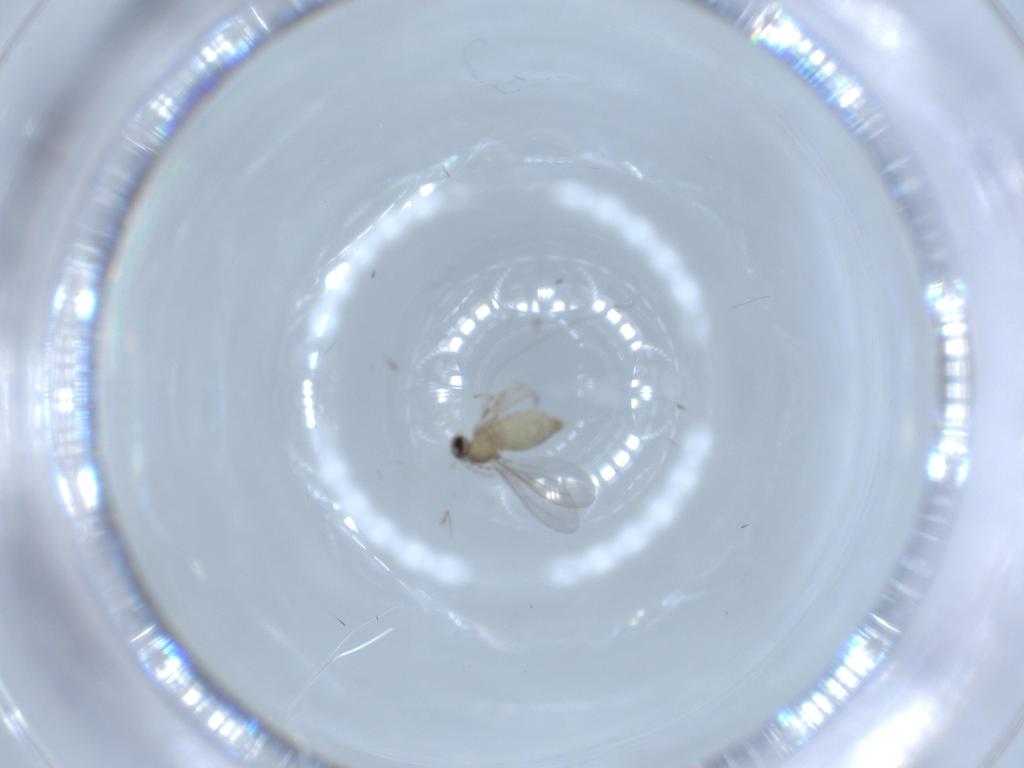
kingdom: Animalia
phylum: Arthropoda
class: Insecta
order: Diptera
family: Cecidomyiidae
